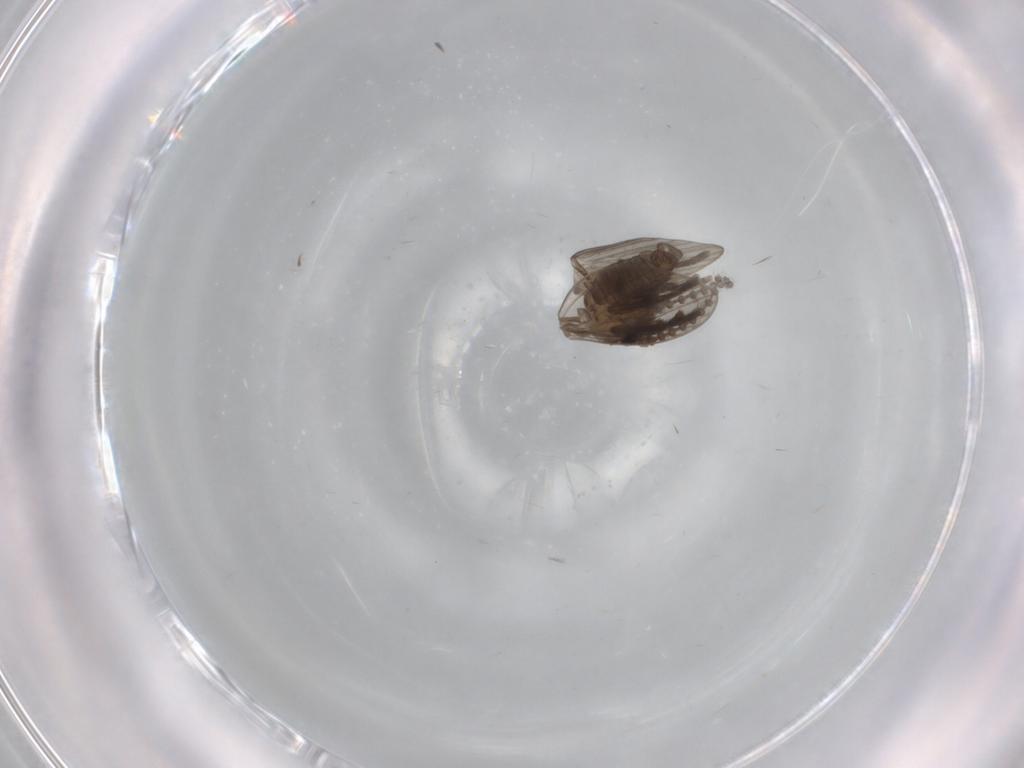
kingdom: Animalia
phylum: Arthropoda
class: Insecta
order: Diptera
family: Psychodidae
